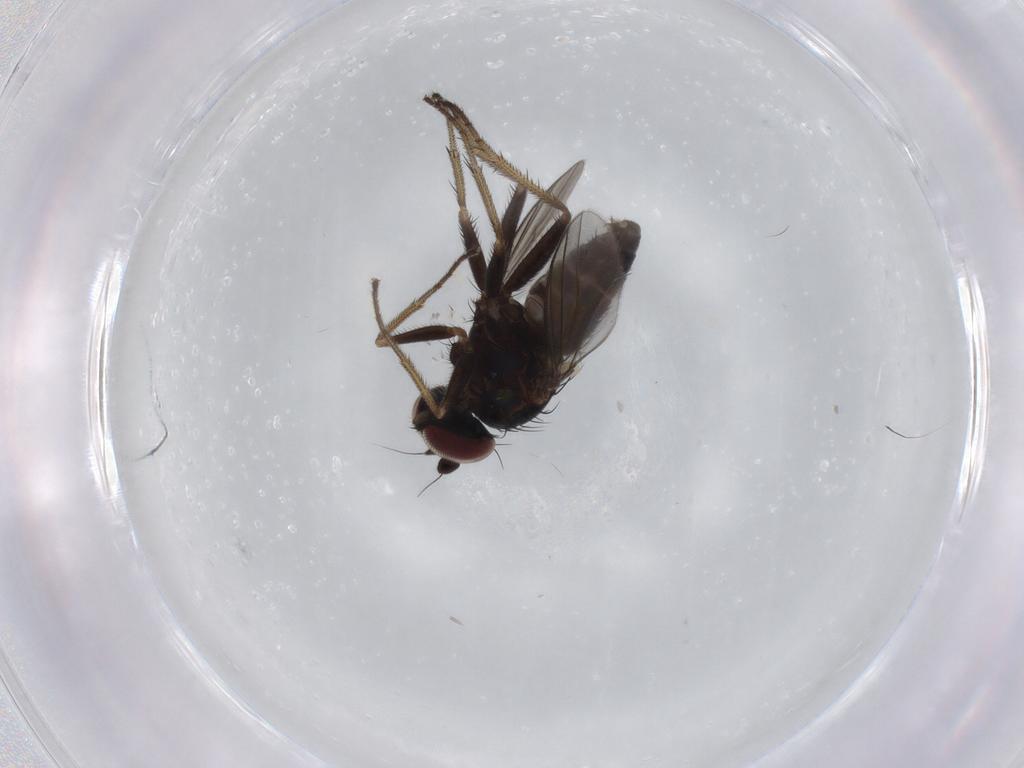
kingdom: Animalia
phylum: Arthropoda
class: Insecta
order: Diptera
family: Dolichopodidae
